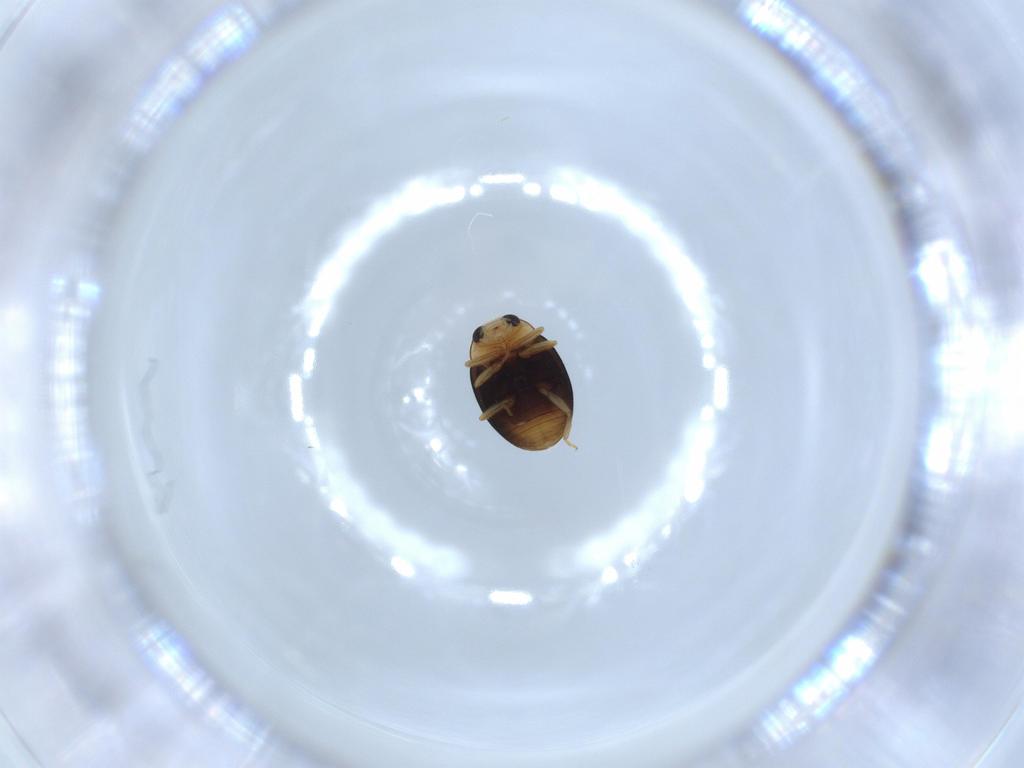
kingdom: Animalia
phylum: Arthropoda
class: Insecta
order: Coleoptera
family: Coccinellidae
